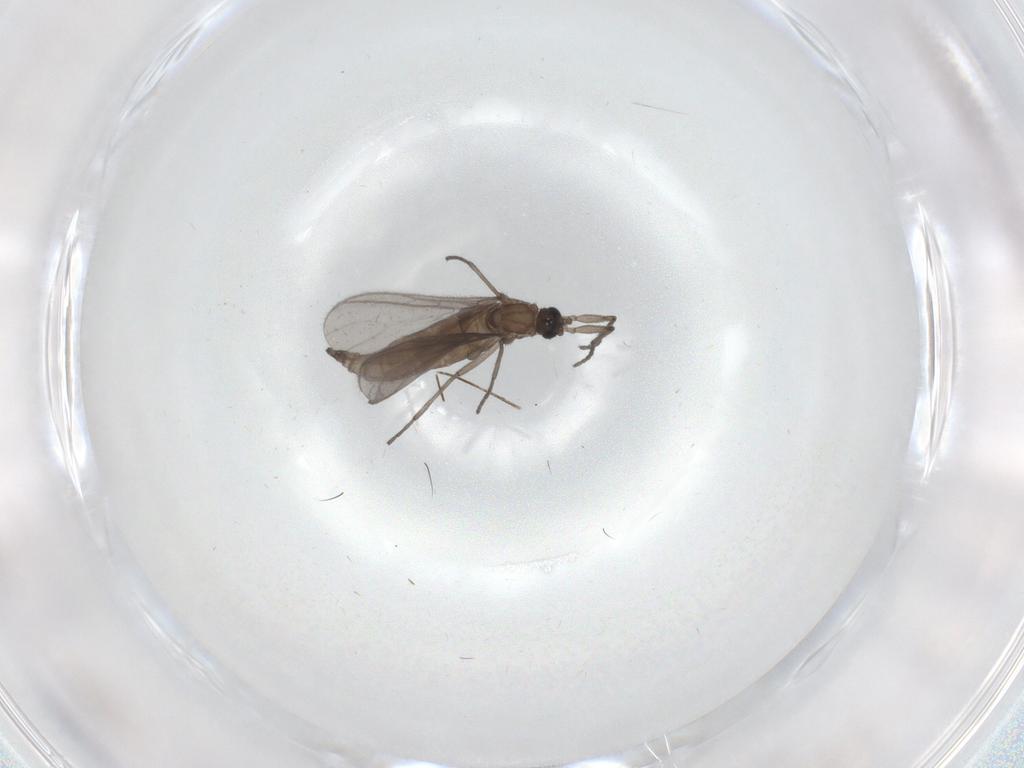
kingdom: Animalia
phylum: Arthropoda
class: Insecta
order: Diptera
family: Sciaridae
